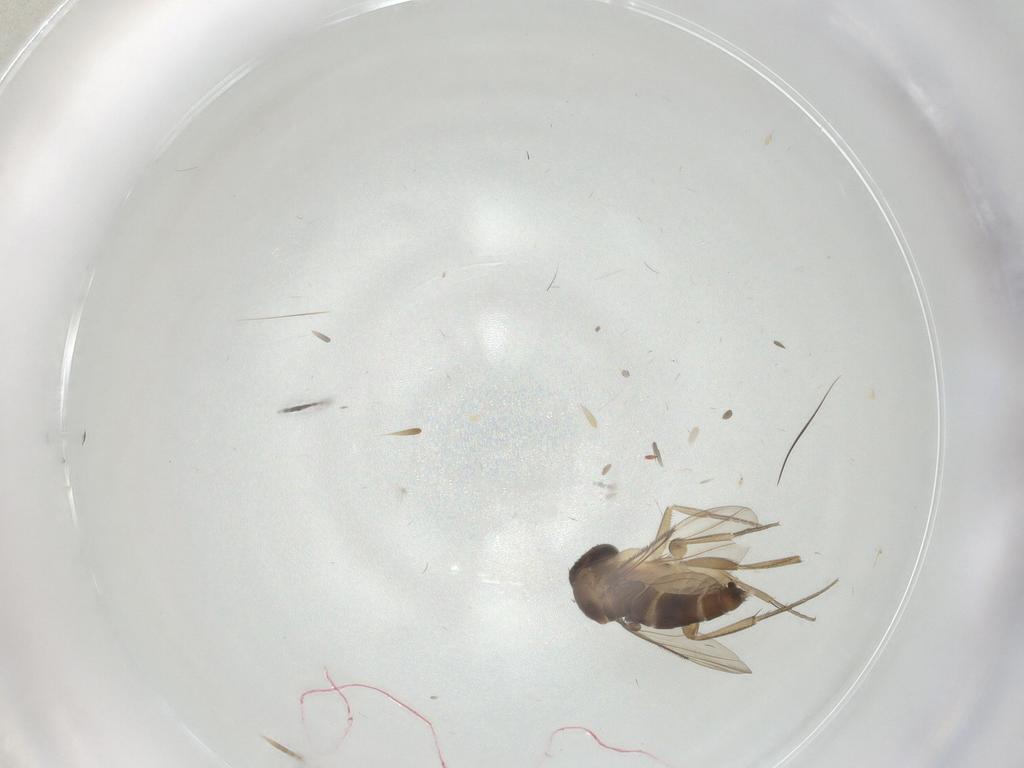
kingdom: Animalia
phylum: Arthropoda
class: Insecta
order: Diptera
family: Phoridae
